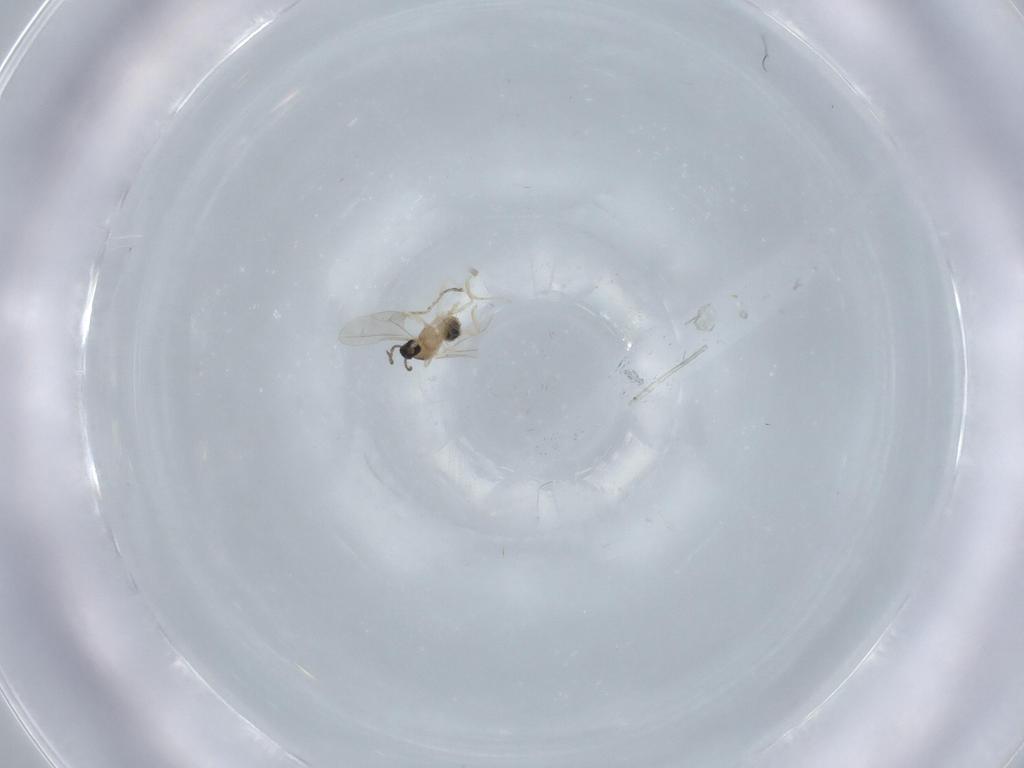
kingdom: Animalia
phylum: Arthropoda
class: Insecta
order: Diptera
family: Cecidomyiidae
